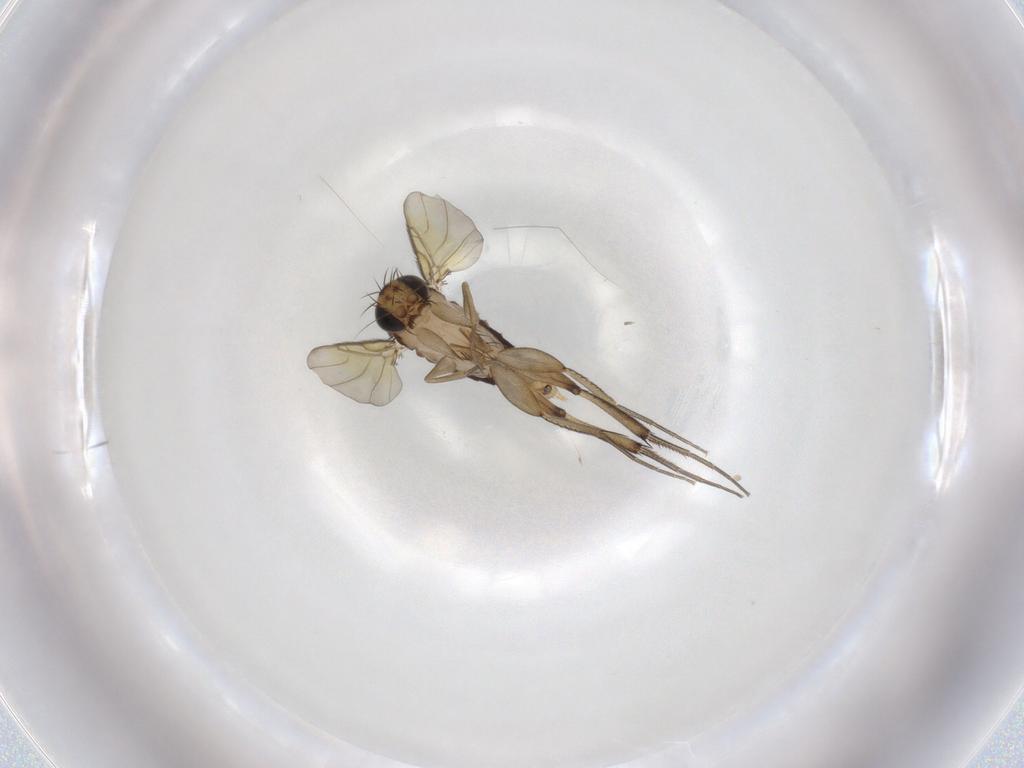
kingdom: Animalia
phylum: Arthropoda
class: Insecta
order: Diptera
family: Phoridae
